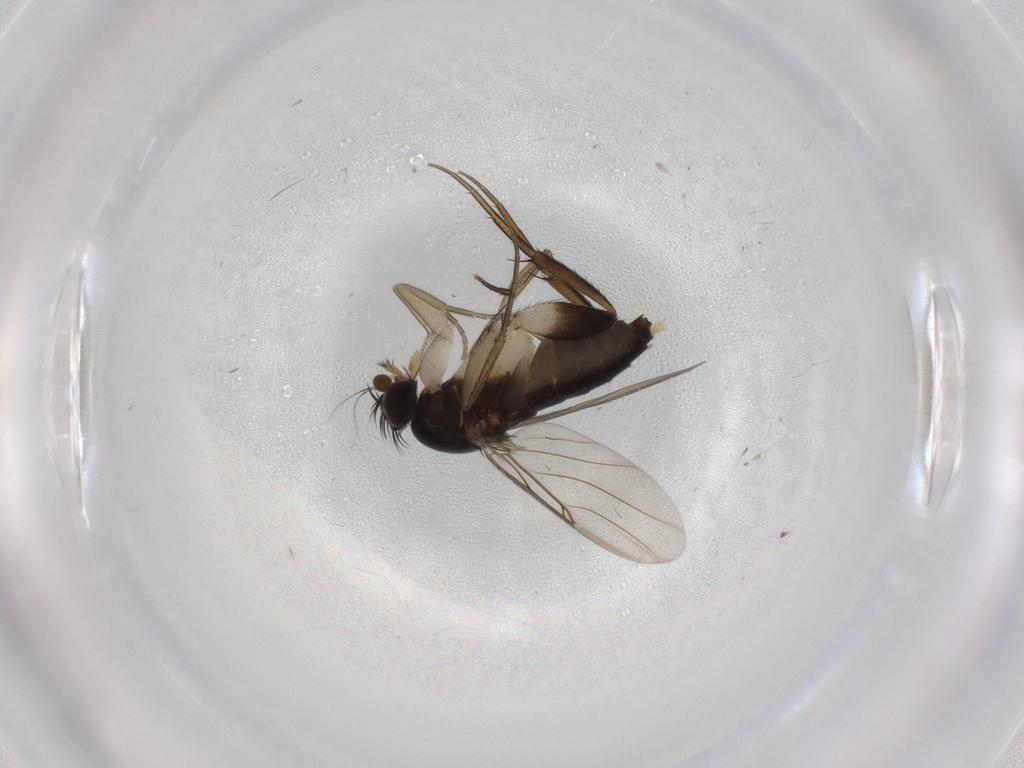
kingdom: Animalia
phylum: Arthropoda
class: Insecta
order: Diptera
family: Phoridae
